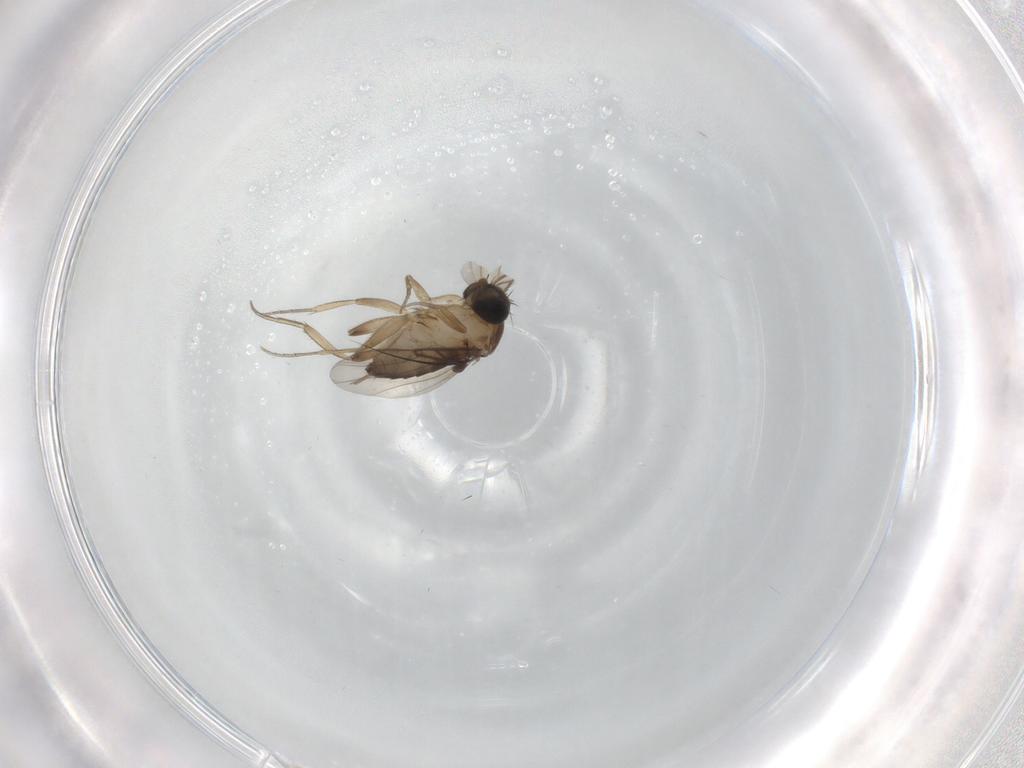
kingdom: Animalia
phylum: Arthropoda
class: Insecta
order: Diptera
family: Phoridae
